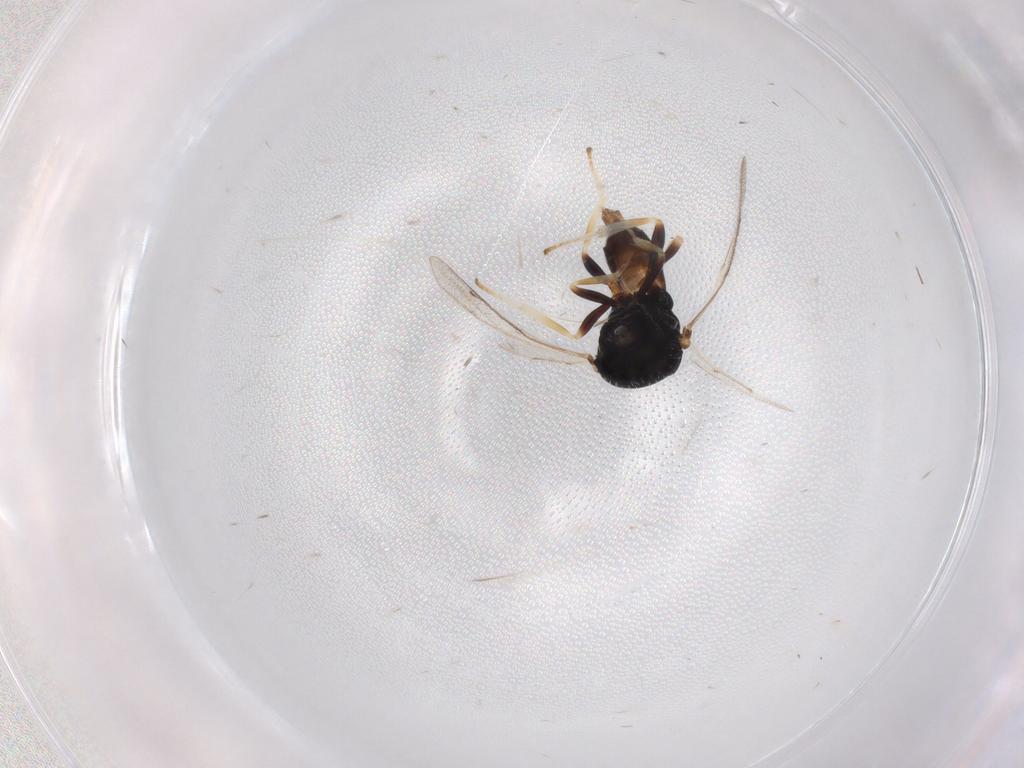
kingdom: Animalia
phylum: Arthropoda
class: Insecta
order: Hymenoptera
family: Pteromalidae
